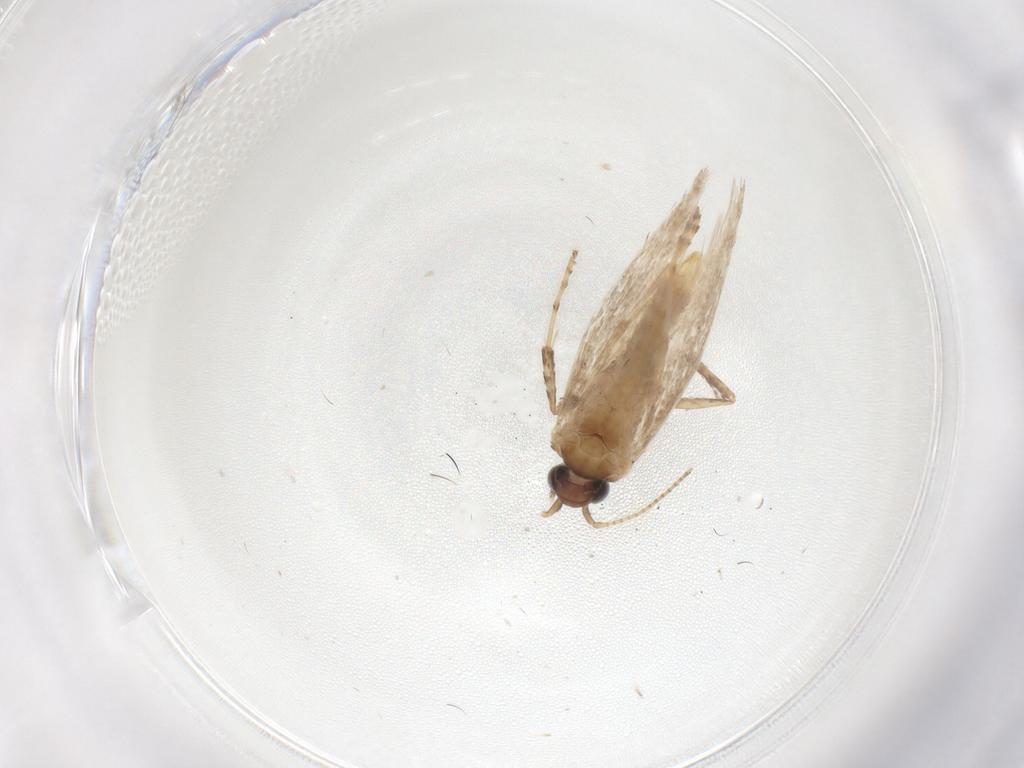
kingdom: Animalia
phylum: Arthropoda
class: Insecta
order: Lepidoptera
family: Gracillariidae
